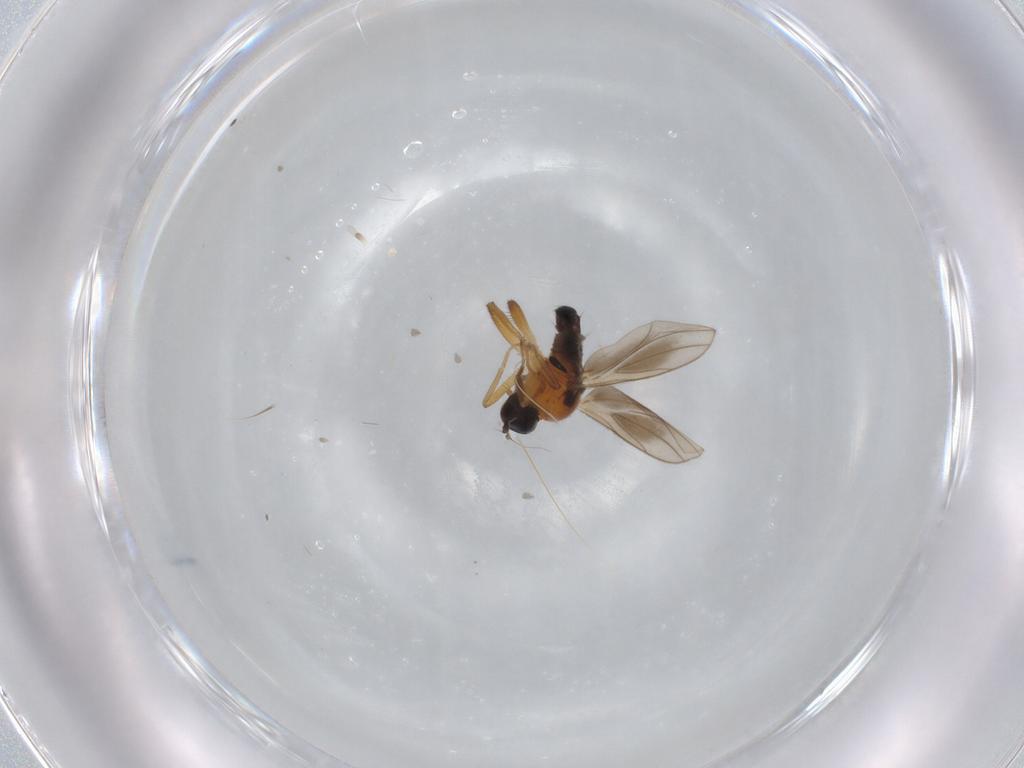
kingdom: Animalia
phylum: Arthropoda
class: Insecta
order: Diptera
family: Hybotidae
